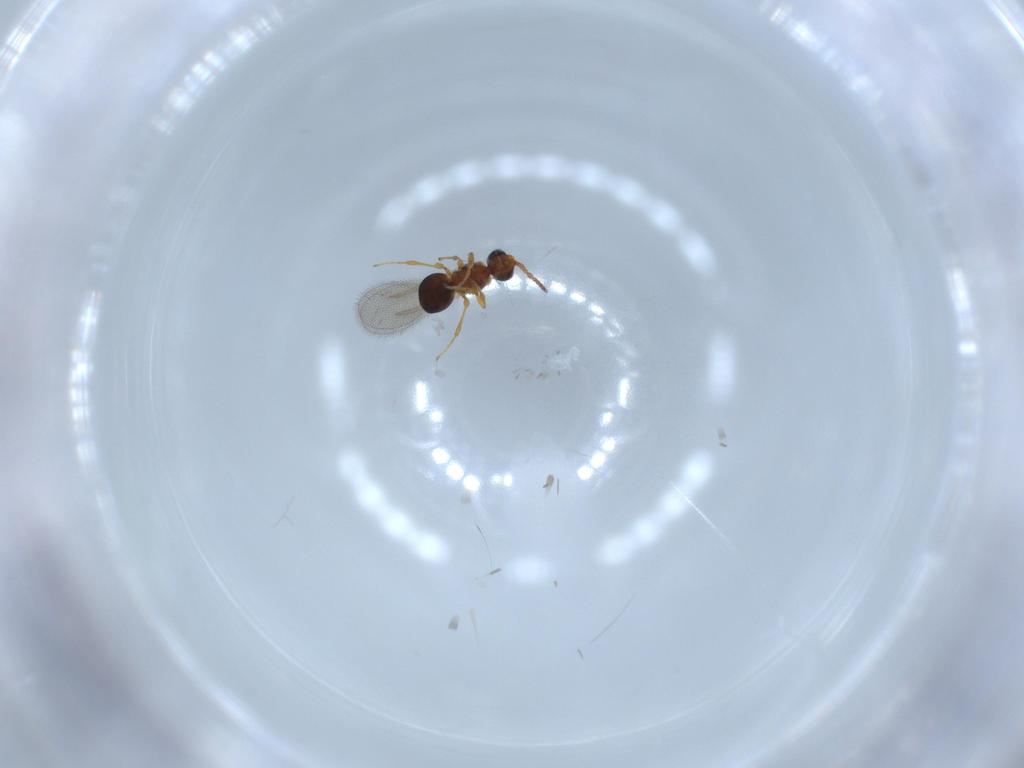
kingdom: Animalia
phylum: Arthropoda
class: Insecta
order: Hymenoptera
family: Diapriidae
